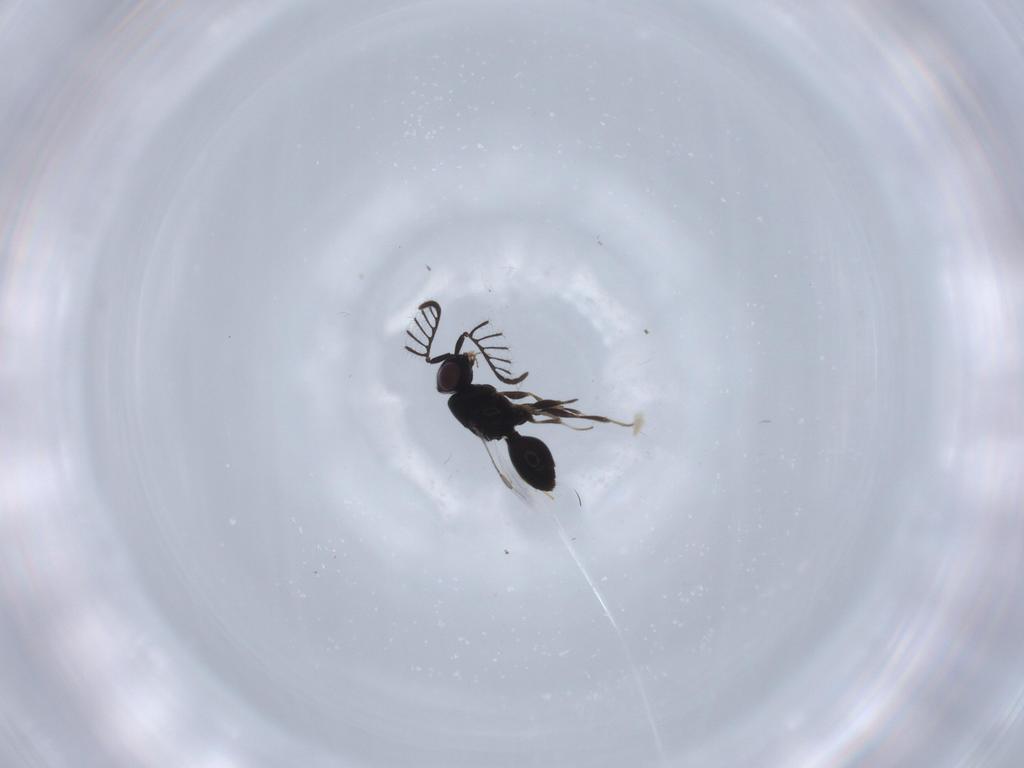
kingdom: Animalia
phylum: Arthropoda
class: Insecta
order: Hymenoptera
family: Megaspilidae
